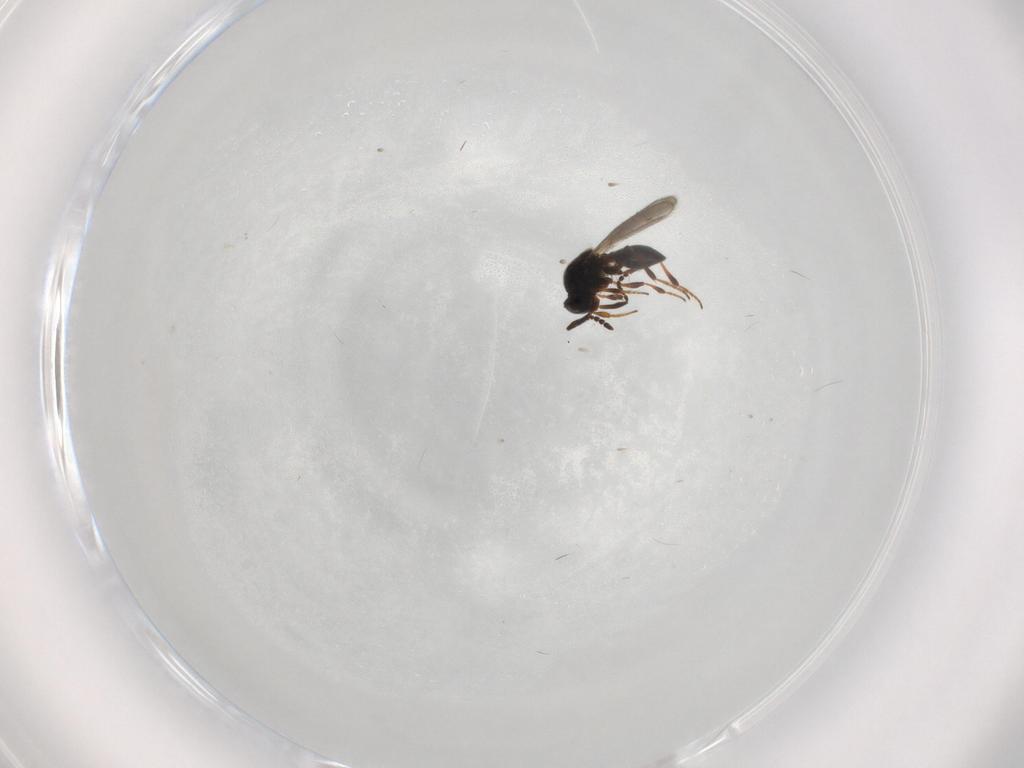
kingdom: Animalia
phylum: Arthropoda
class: Insecta
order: Hymenoptera
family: Platygastridae
